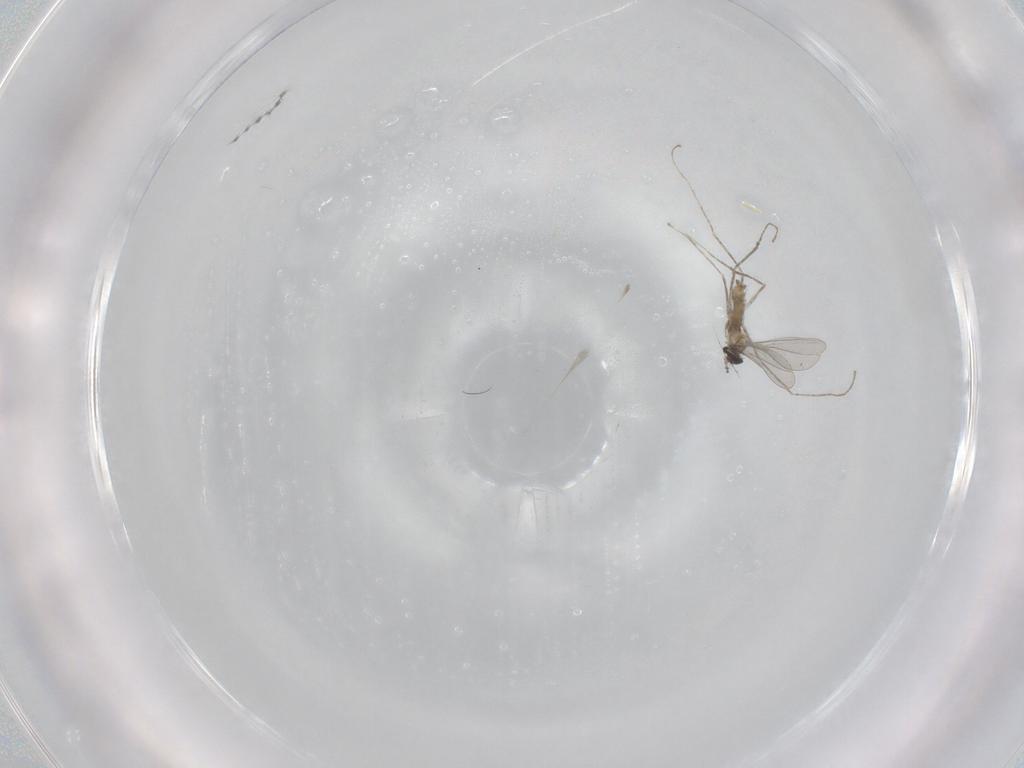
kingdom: Animalia
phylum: Arthropoda
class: Insecta
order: Diptera
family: Cecidomyiidae
